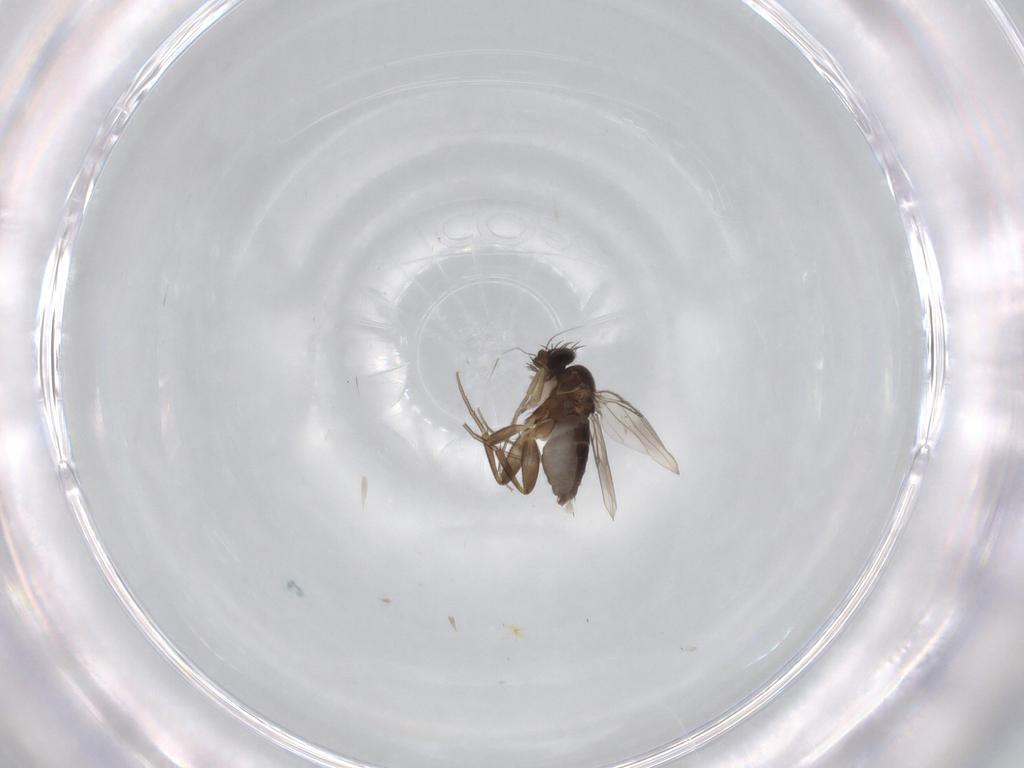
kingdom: Animalia
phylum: Arthropoda
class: Insecta
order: Diptera
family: Phoridae
